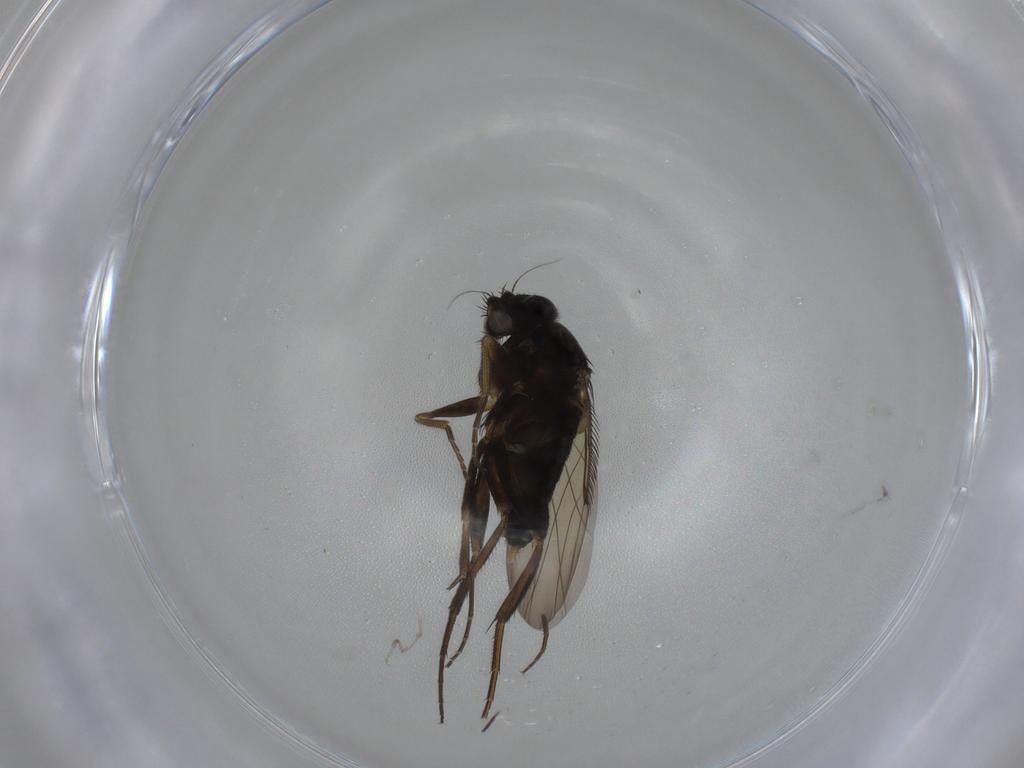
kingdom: Animalia
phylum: Arthropoda
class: Insecta
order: Diptera
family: Phoridae
